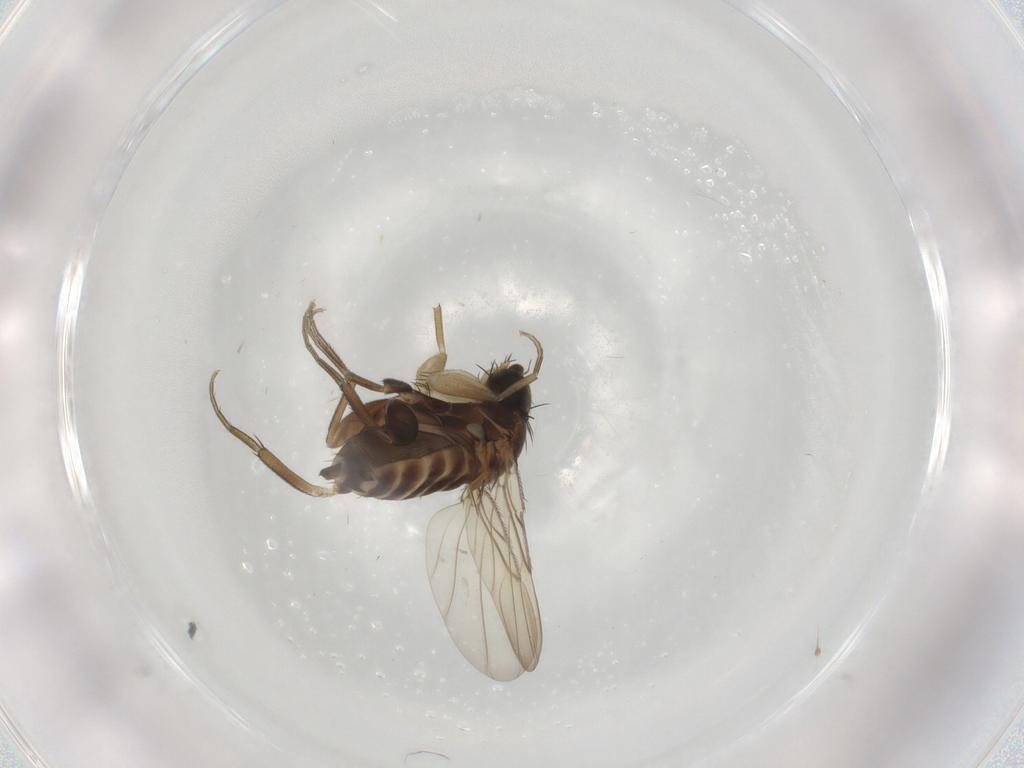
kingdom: Animalia
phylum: Arthropoda
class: Insecta
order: Diptera
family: Phoridae
